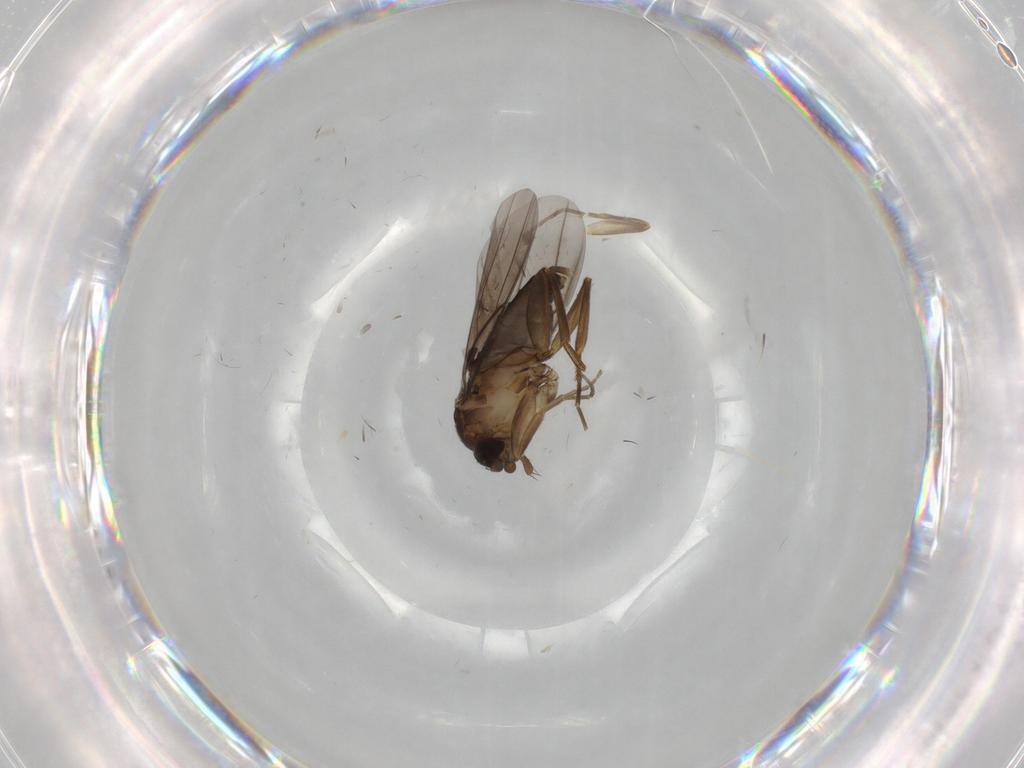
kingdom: Animalia
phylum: Arthropoda
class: Insecta
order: Diptera
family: Phoridae
